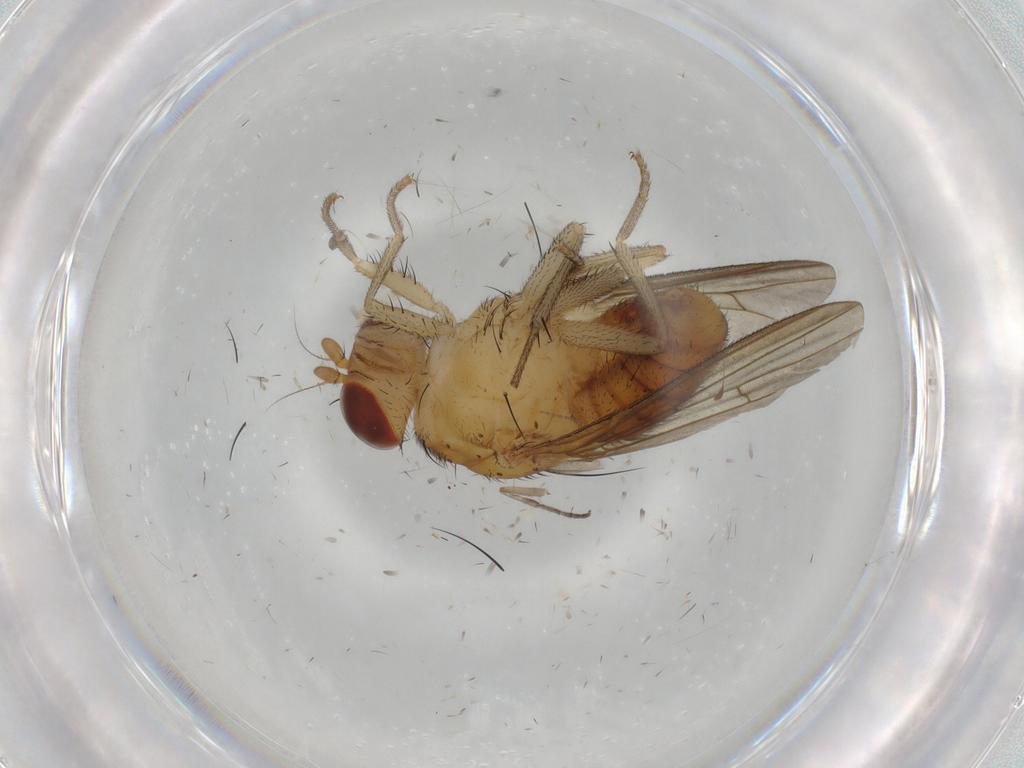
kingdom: Animalia
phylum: Arthropoda
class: Insecta
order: Diptera
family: Cecidomyiidae
